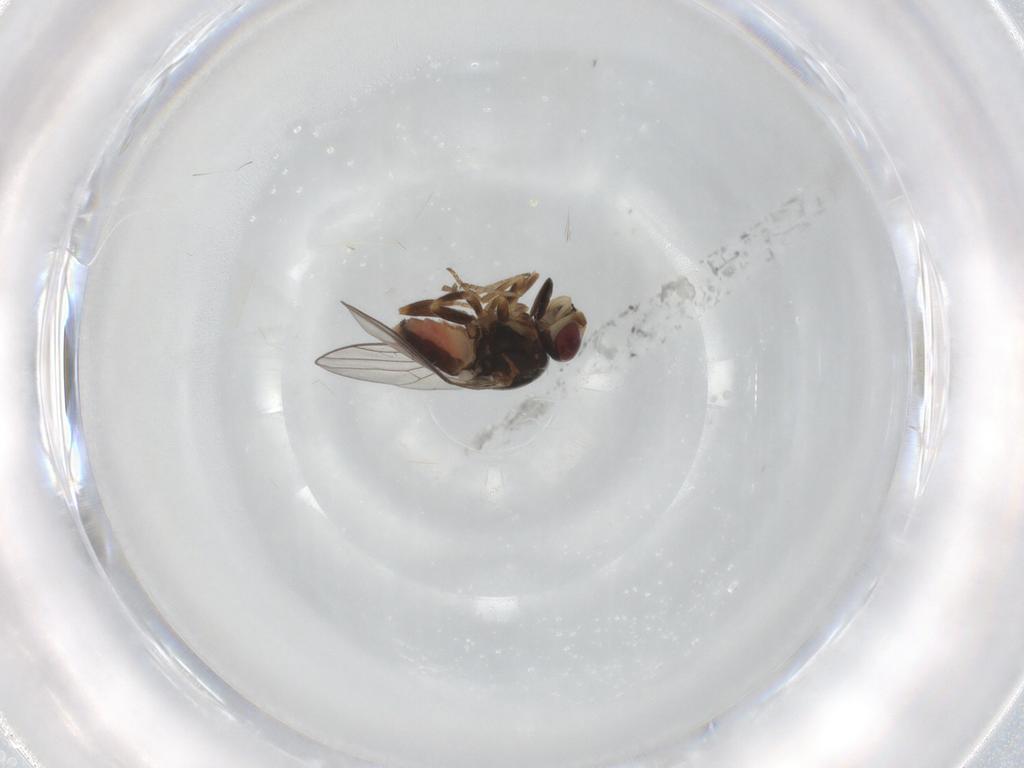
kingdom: Animalia
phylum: Arthropoda
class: Insecta
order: Diptera
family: Chloropidae
